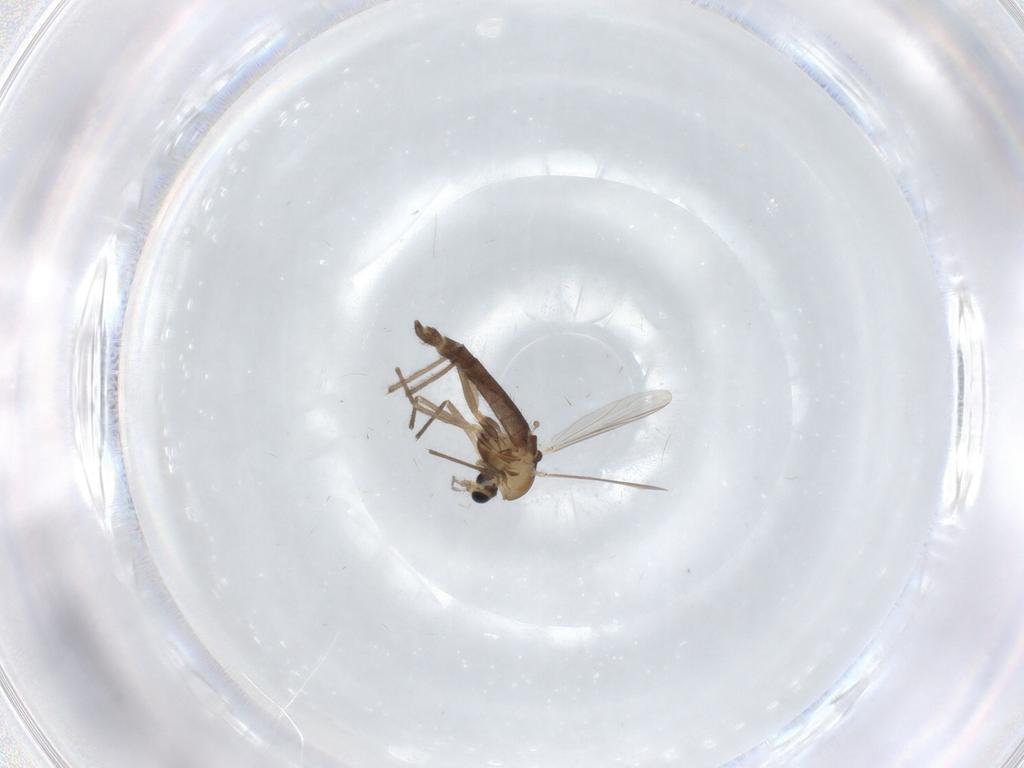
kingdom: Animalia
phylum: Arthropoda
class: Insecta
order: Diptera
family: Chironomidae
